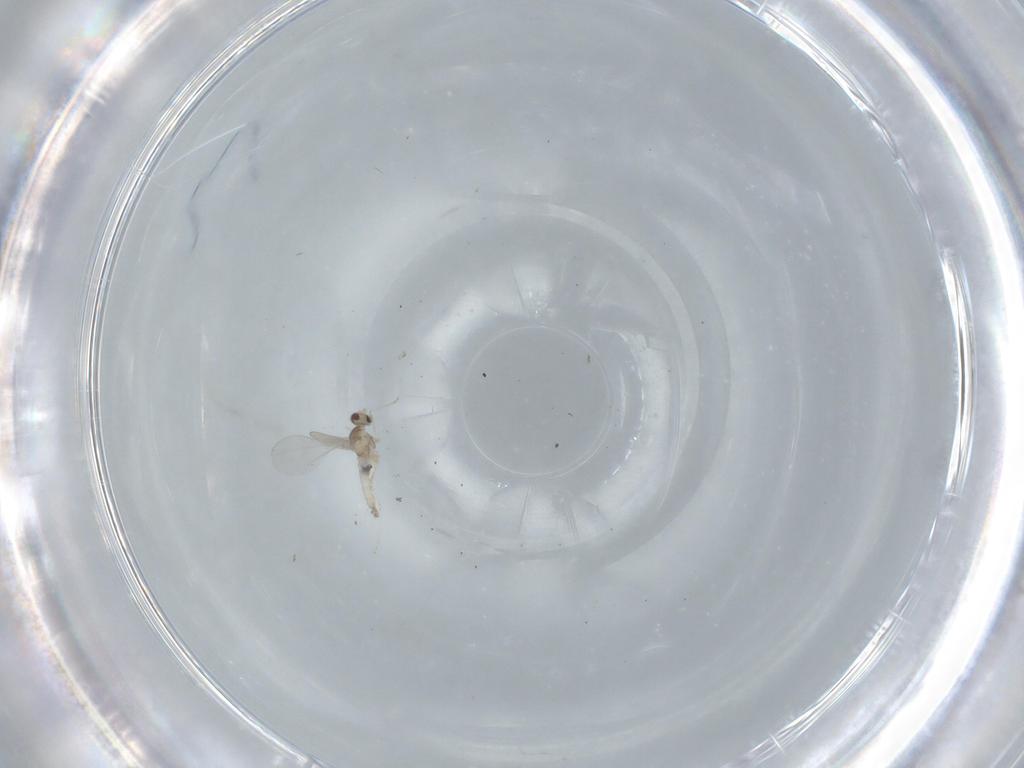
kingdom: Animalia
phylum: Arthropoda
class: Insecta
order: Diptera
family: Cecidomyiidae
